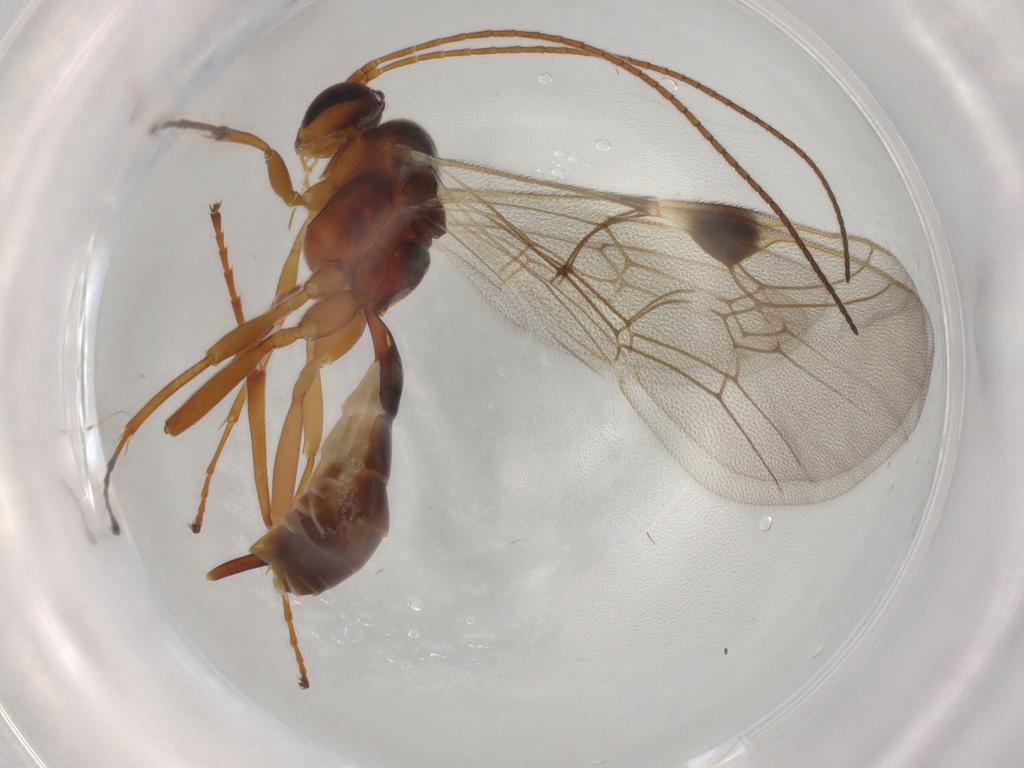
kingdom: Animalia
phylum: Arthropoda
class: Insecta
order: Hymenoptera
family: Ichneumonidae
